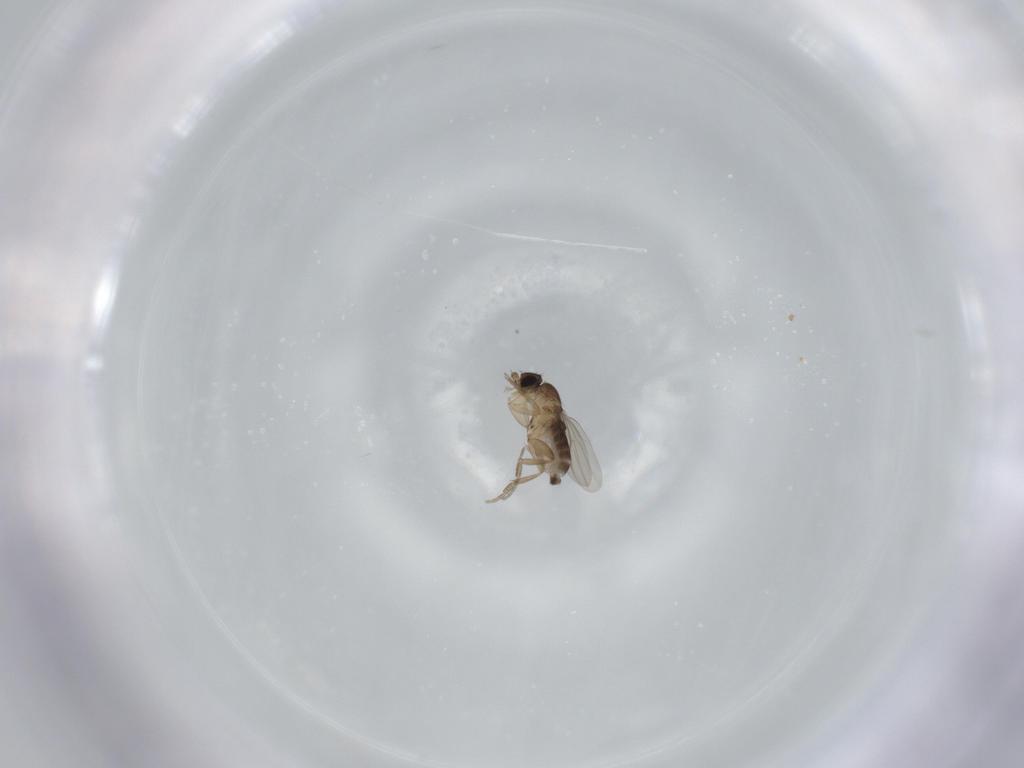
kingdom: Animalia
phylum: Arthropoda
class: Insecta
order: Diptera
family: Phoridae
